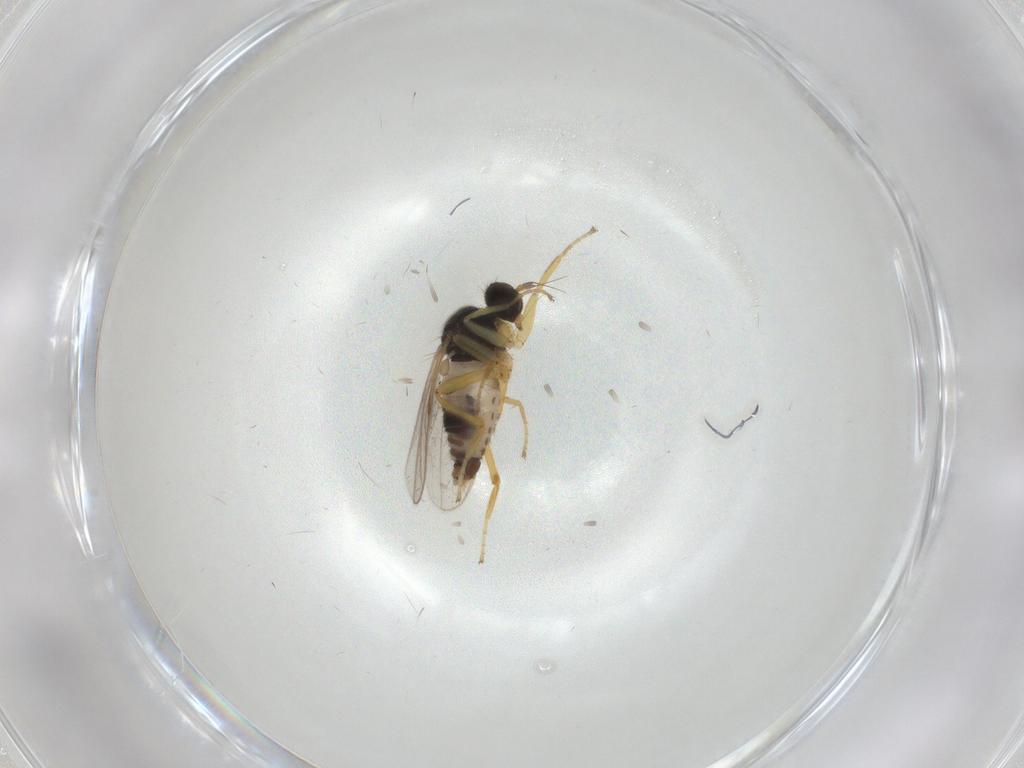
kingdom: Animalia
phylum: Arthropoda
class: Insecta
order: Diptera
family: Hybotidae
